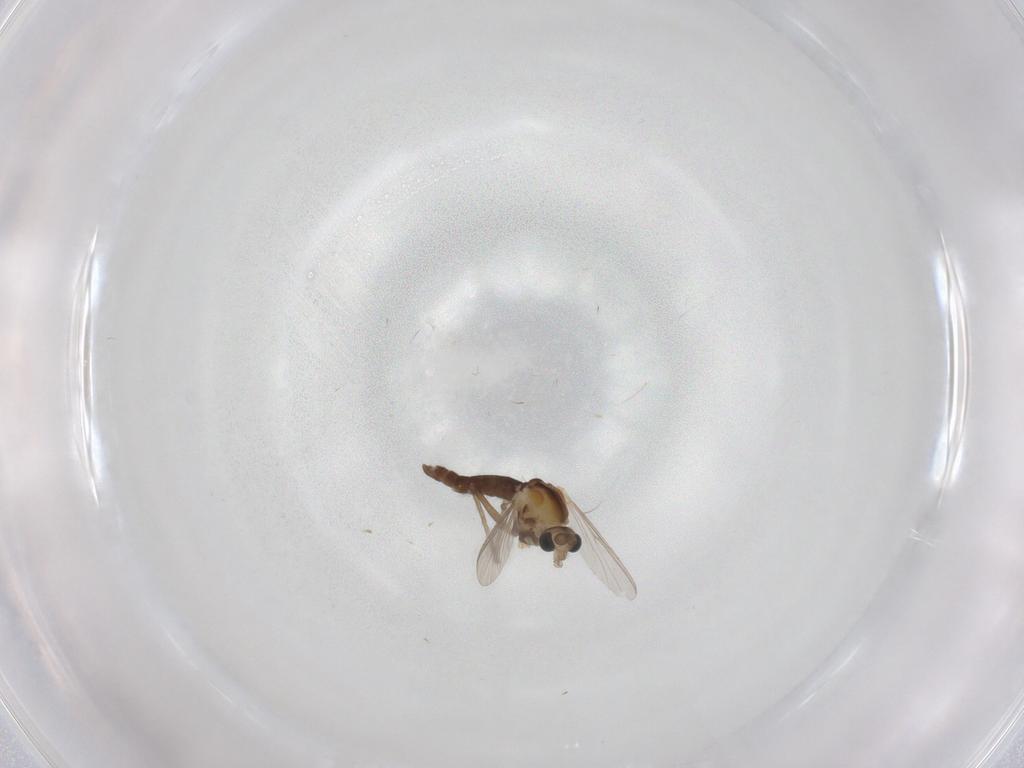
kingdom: Animalia
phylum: Arthropoda
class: Insecta
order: Diptera
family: Chironomidae
